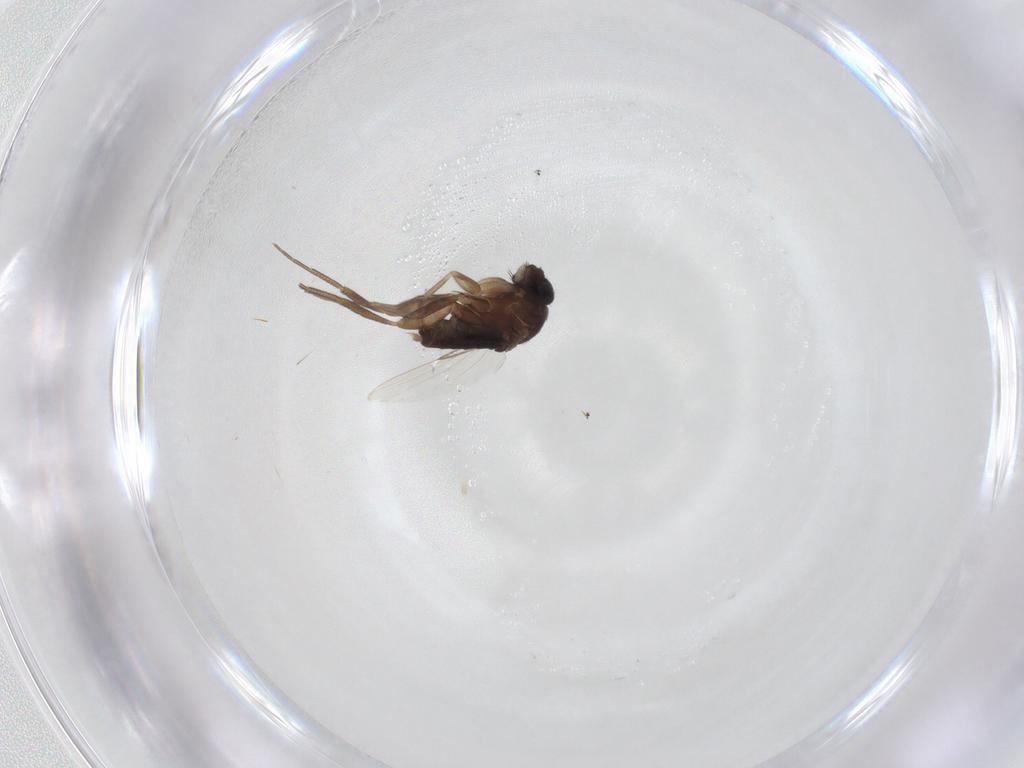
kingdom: Animalia
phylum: Arthropoda
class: Insecta
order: Diptera
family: Phoridae
